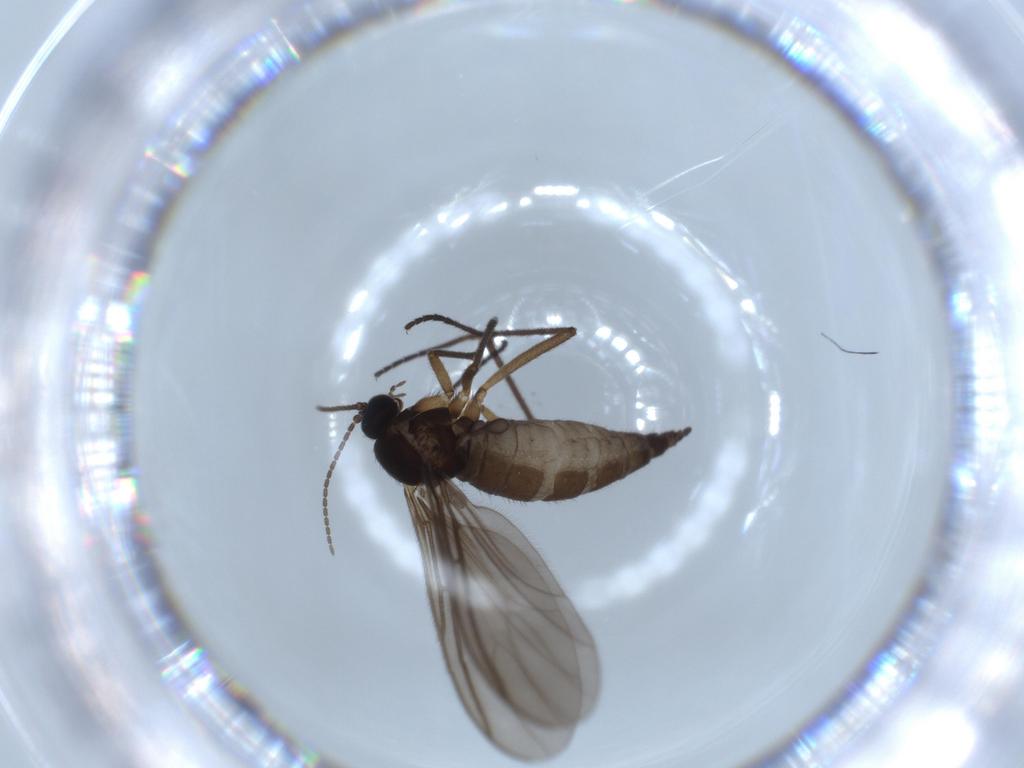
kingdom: Animalia
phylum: Arthropoda
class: Insecta
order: Diptera
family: Sciaridae
